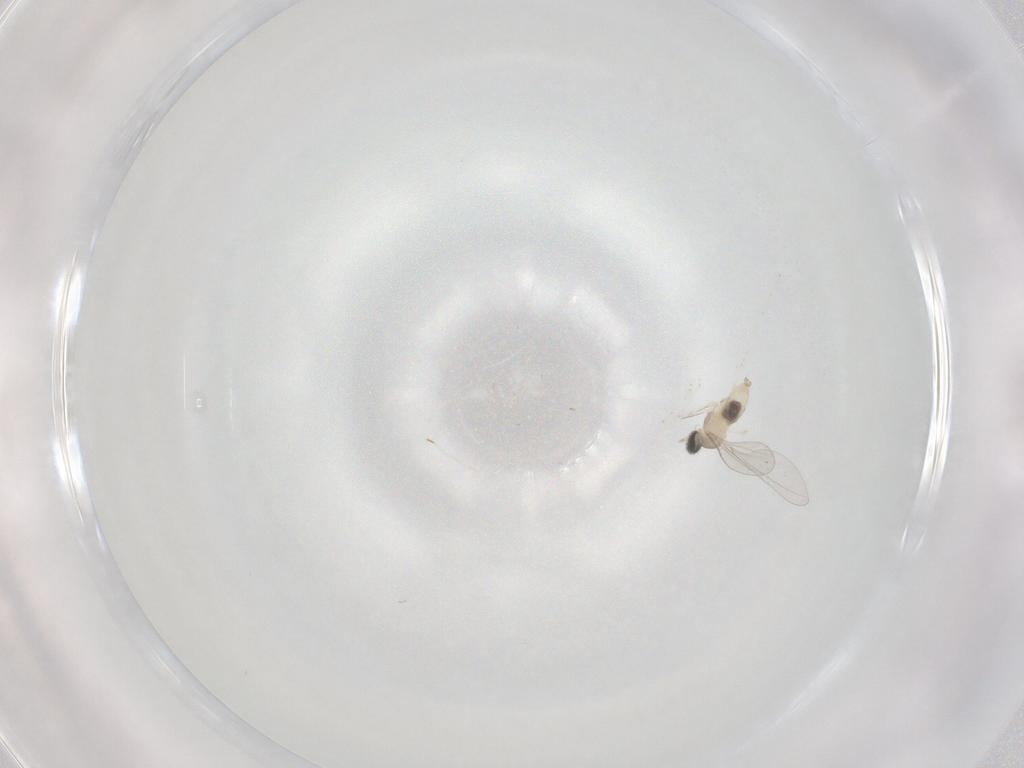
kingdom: Animalia
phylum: Arthropoda
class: Insecta
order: Diptera
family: Cecidomyiidae
